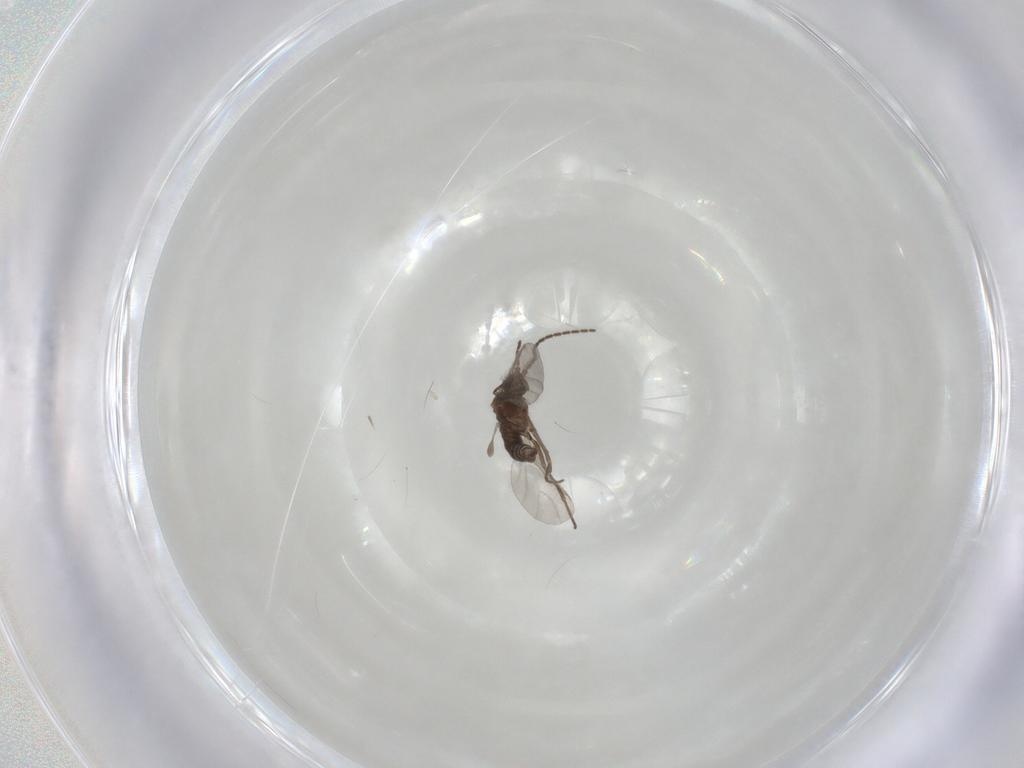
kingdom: Animalia
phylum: Arthropoda
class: Insecta
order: Diptera
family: Sciaridae
